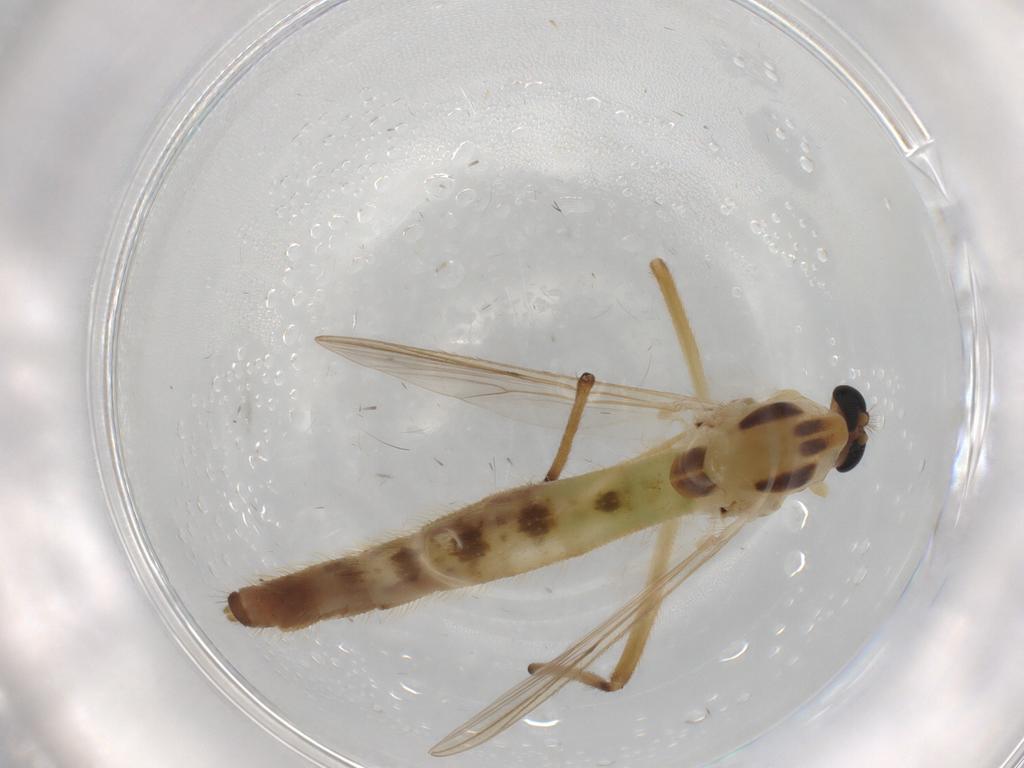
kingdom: Animalia
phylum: Arthropoda
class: Insecta
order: Diptera
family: Chironomidae
